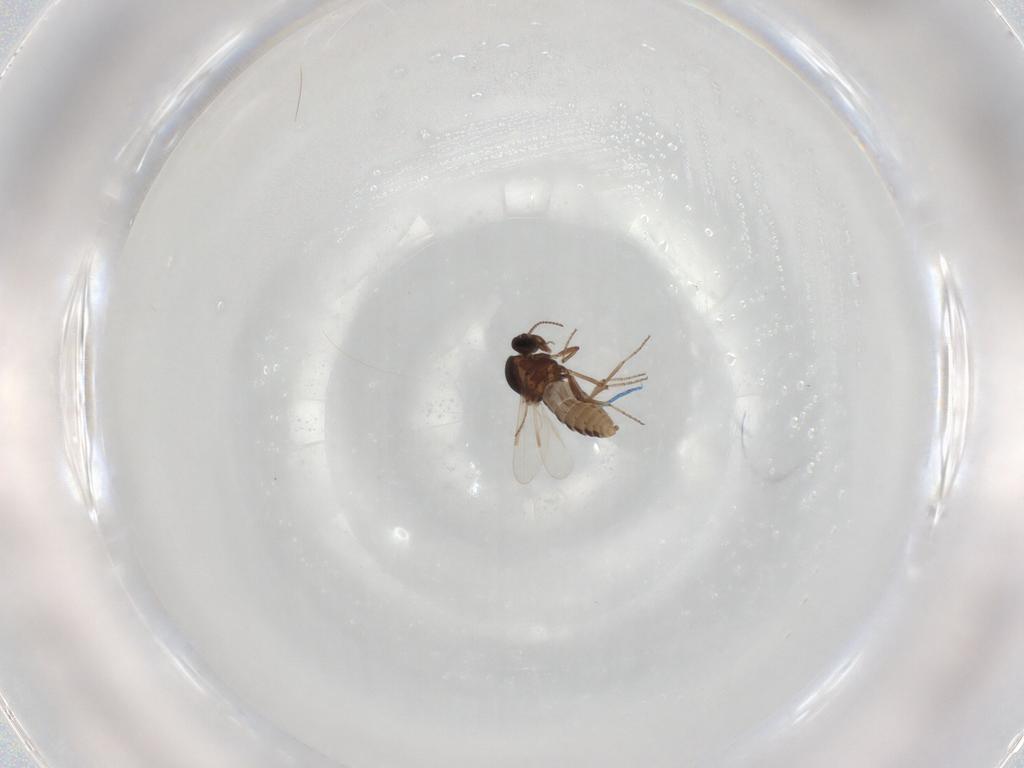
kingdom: Animalia
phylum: Arthropoda
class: Insecta
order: Diptera
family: Ceratopogonidae
